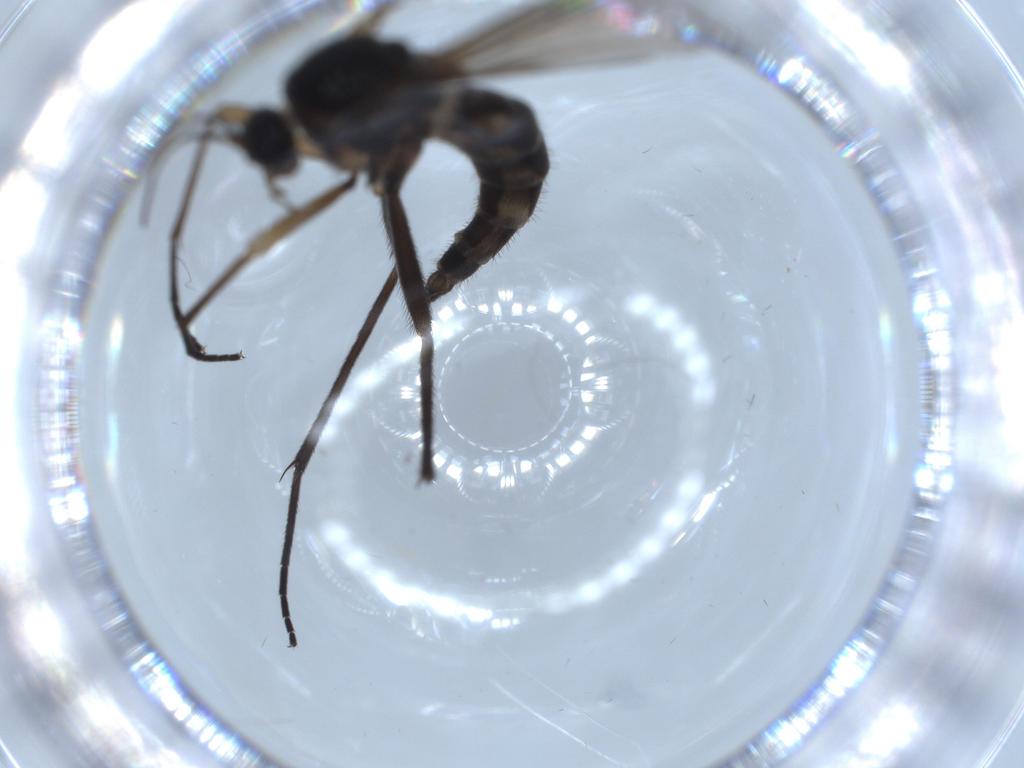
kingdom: Animalia
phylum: Arthropoda
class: Insecta
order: Diptera
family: Sciaridae
